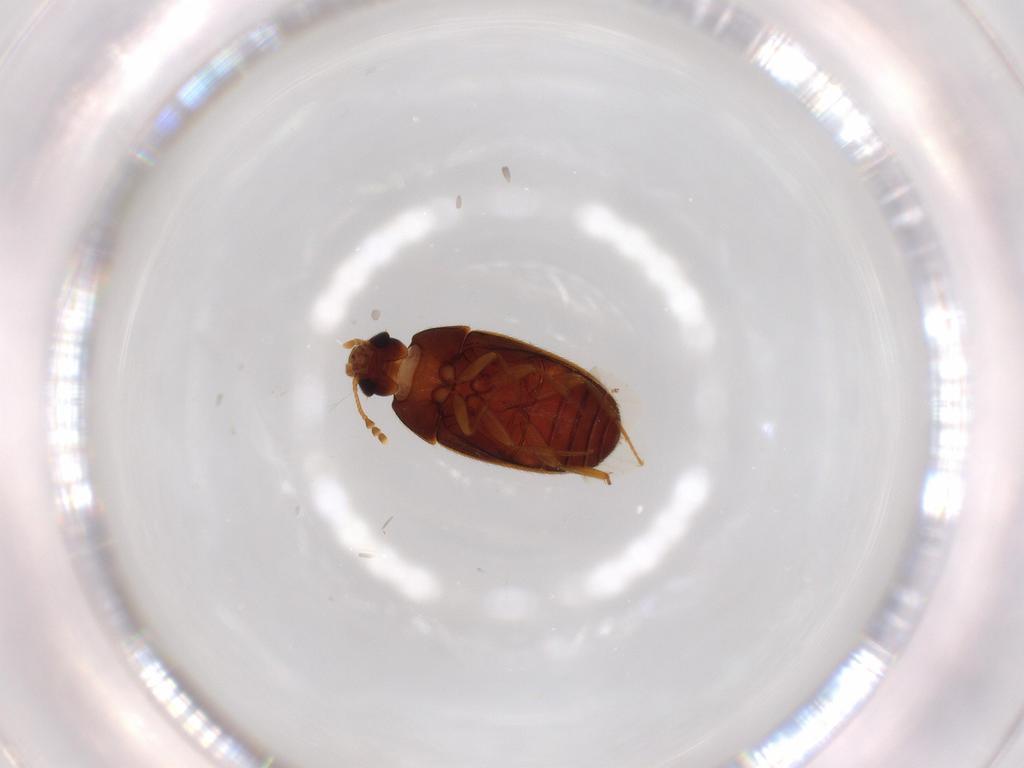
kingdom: Animalia
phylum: Arthropoda
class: Insecta
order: Coleoptera
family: Mycetophagidae
